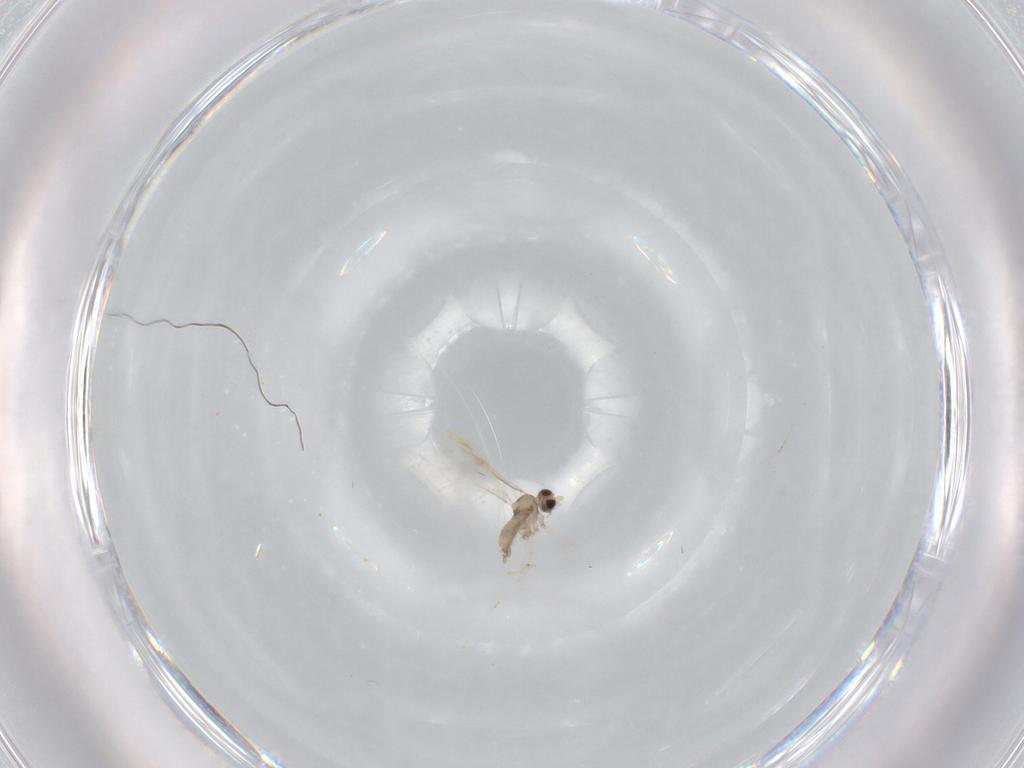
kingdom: Animalia
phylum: Arthropoda
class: Insecta
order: Diptera
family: Cecidomyiidae
